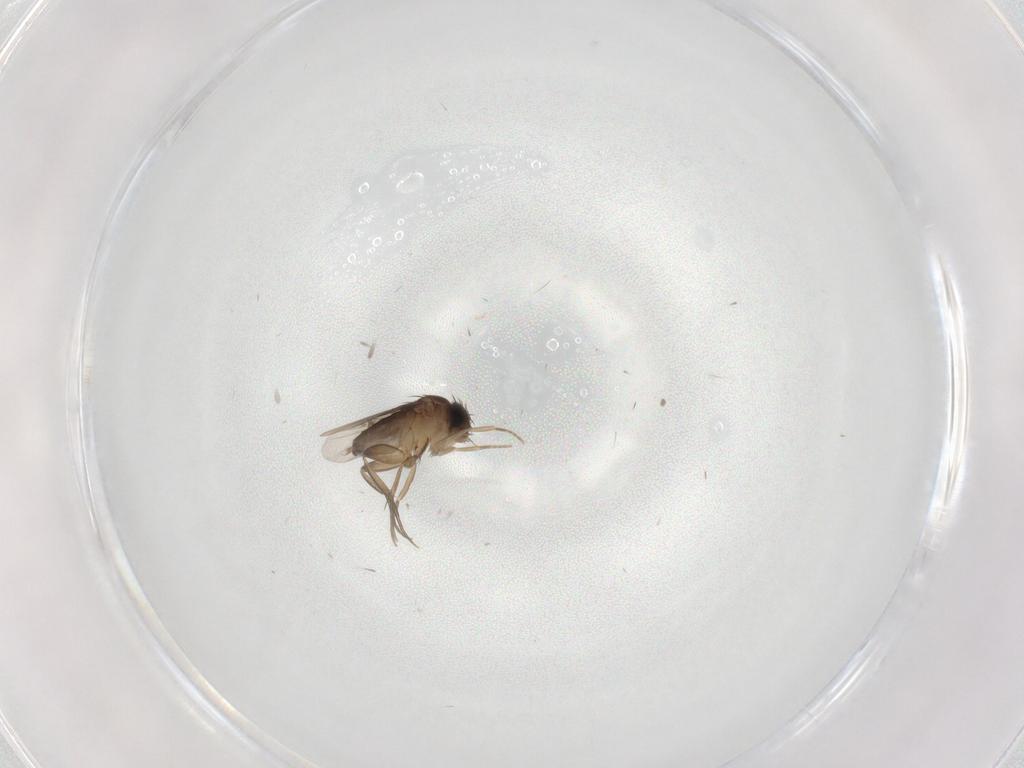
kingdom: Animalia
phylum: Arthropoda
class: Insecta
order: Diptera
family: Phoridae
